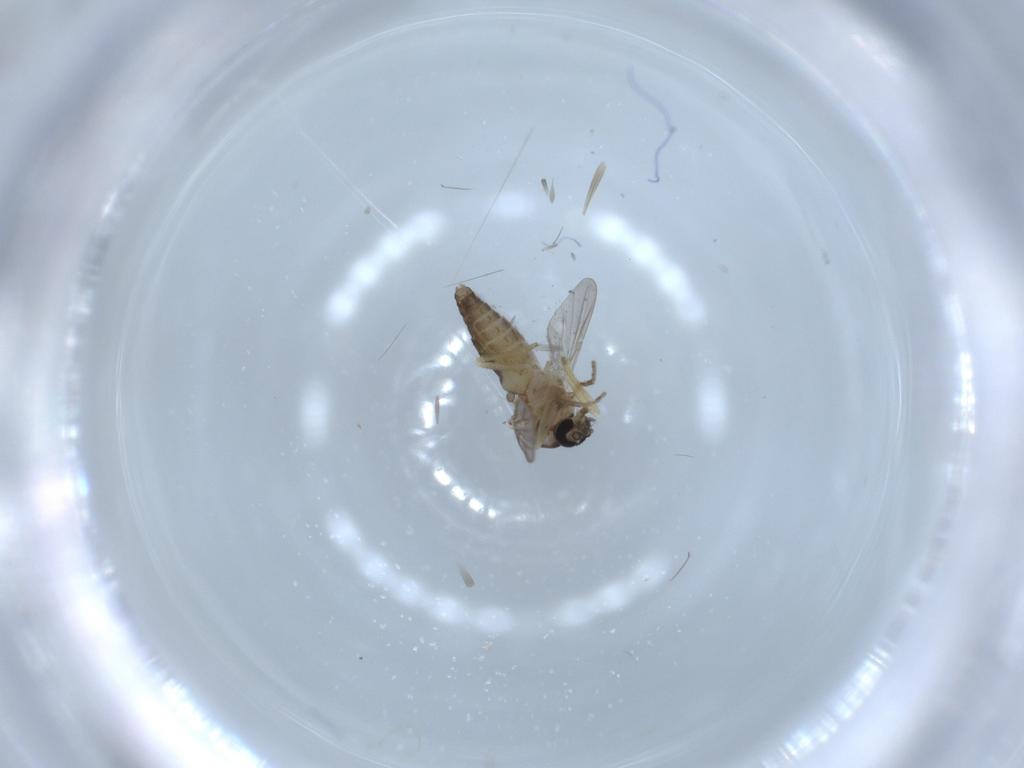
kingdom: Animalia
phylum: Arthropoda
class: Insecta
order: Diptera
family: Ceratopogonidae
